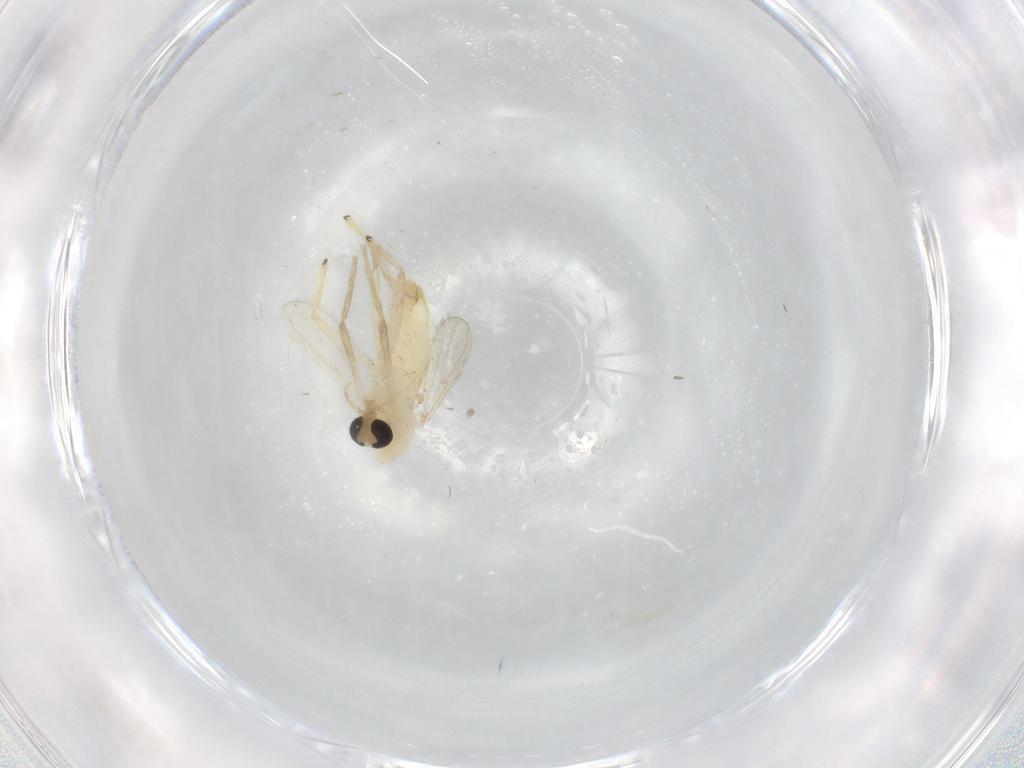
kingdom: Animalia
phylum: Arthropoda
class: Insecta
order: Diptera
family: Chironomidae
